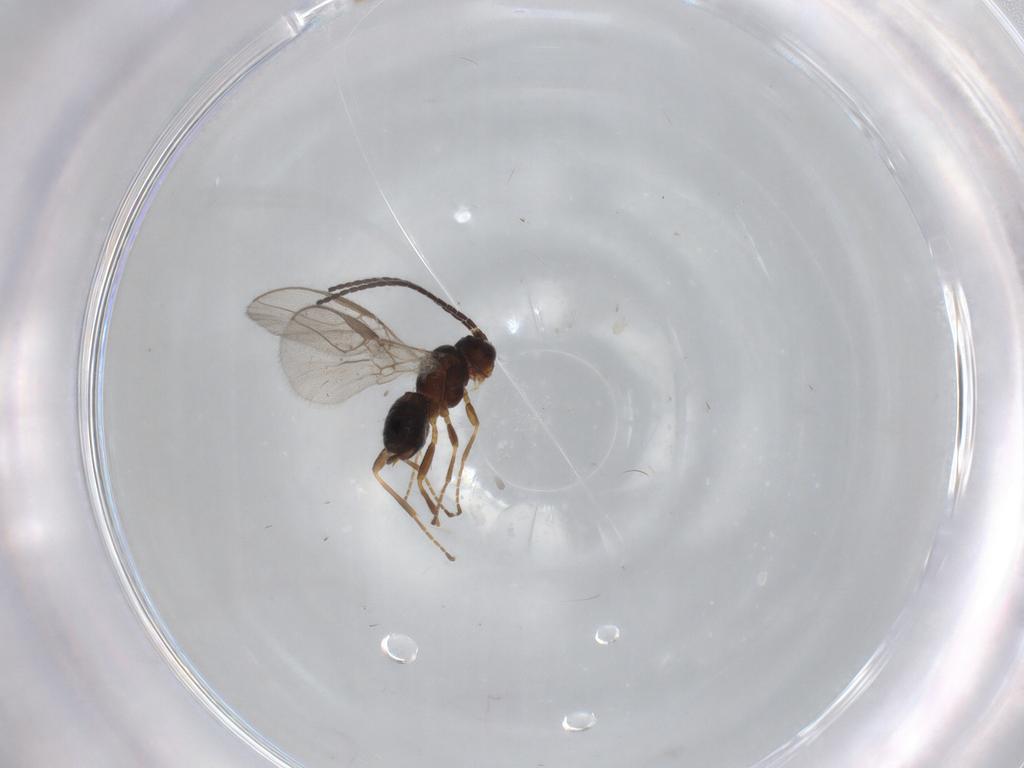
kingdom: Animalia
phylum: Arthropoda
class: Insecta
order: Hymenoptera
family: Braconidae
